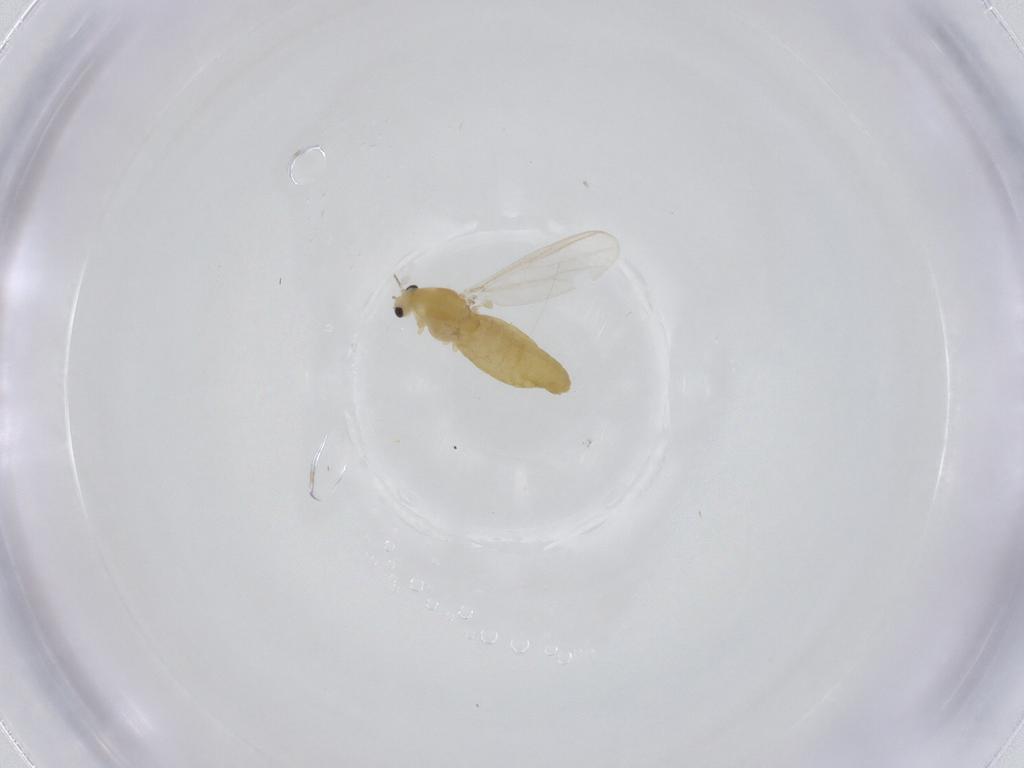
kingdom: Animalia
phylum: Arthropoda
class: Insecta
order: Diptera
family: Chironomidae
